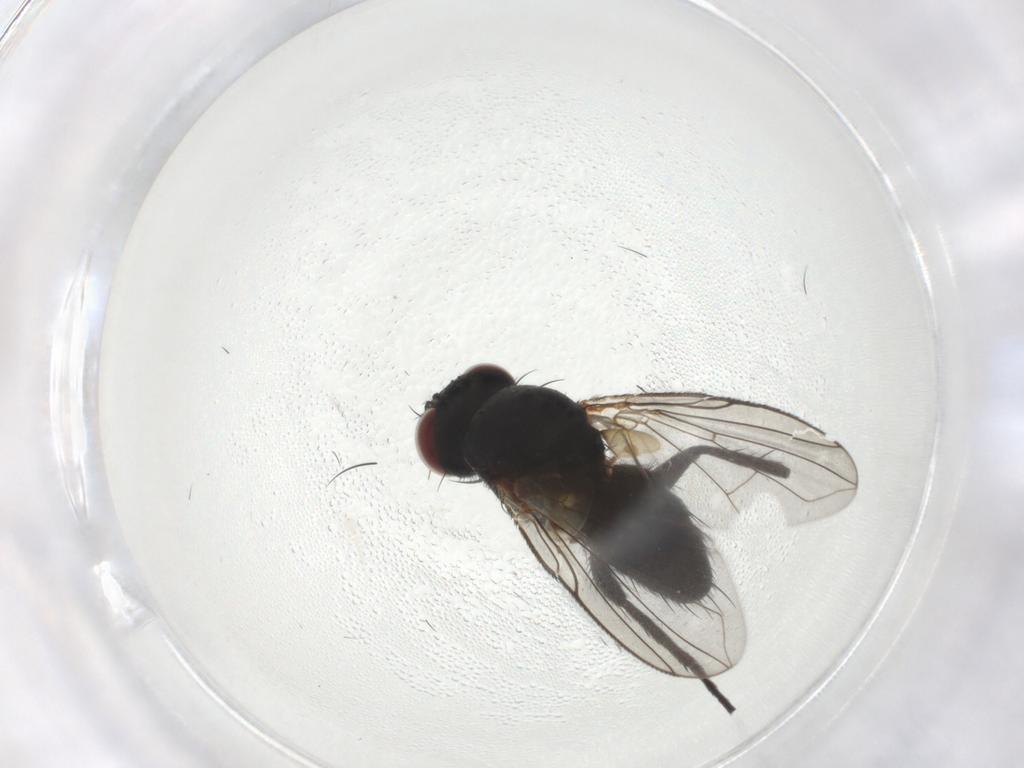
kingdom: Animalia
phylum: Arthropoda
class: Insecta
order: Diptera
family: Tachinidae
